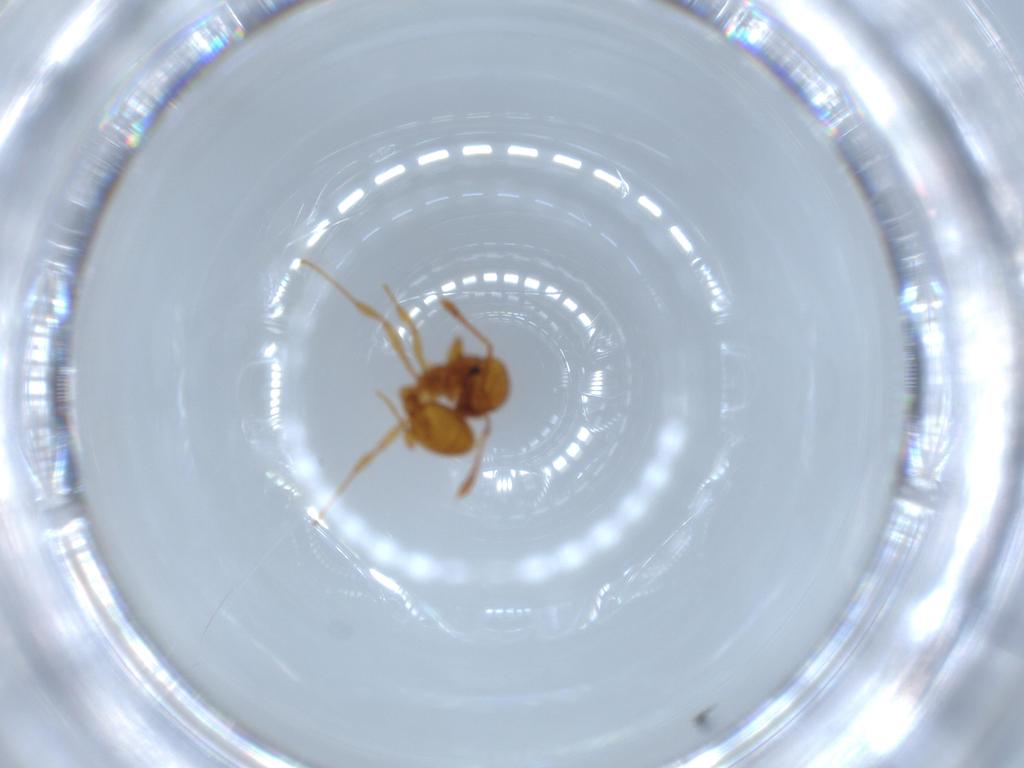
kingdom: Animalia
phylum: Arthropoda
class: Insecta
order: Hymenoptera
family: Formicidae
